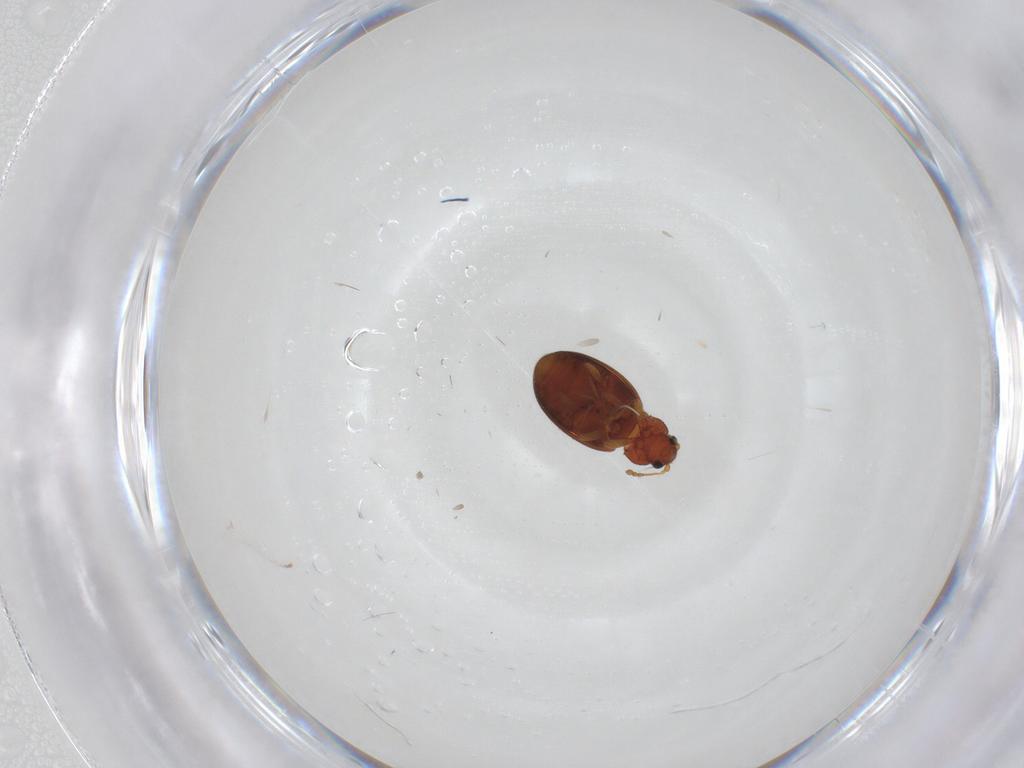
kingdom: Animalia
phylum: Arthropoda
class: Insecta
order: Coleoptera
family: Latridiidae
